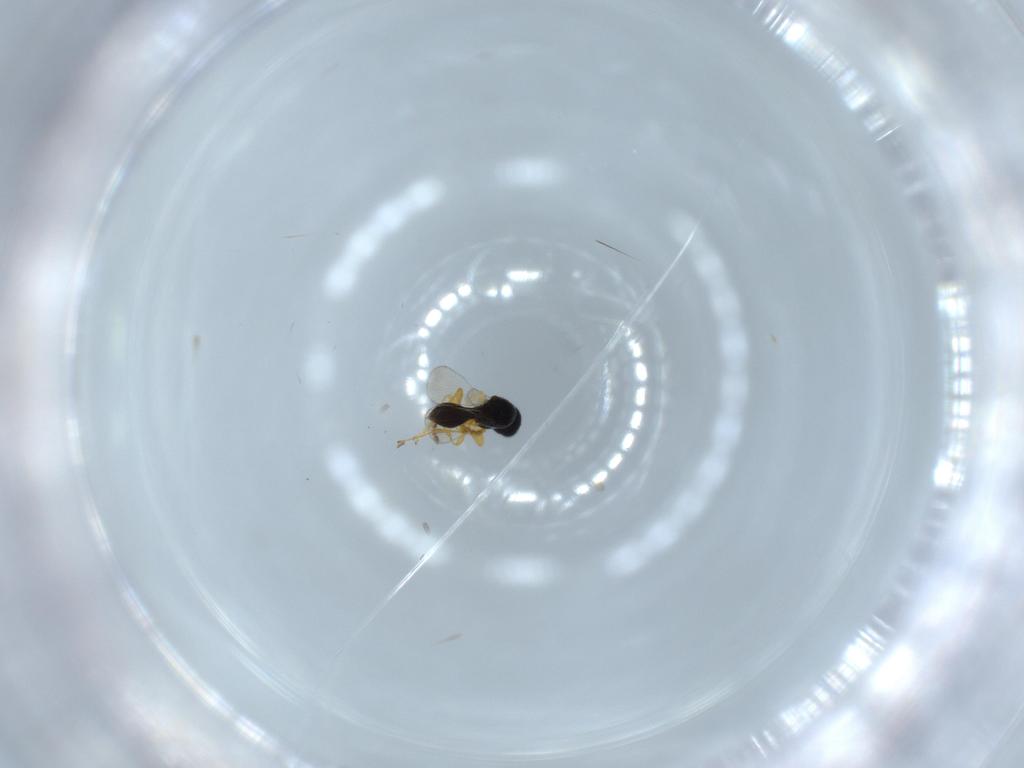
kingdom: Animalia
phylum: Arthropoda
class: Insecta
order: Hymenoptera
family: Platygastridae
